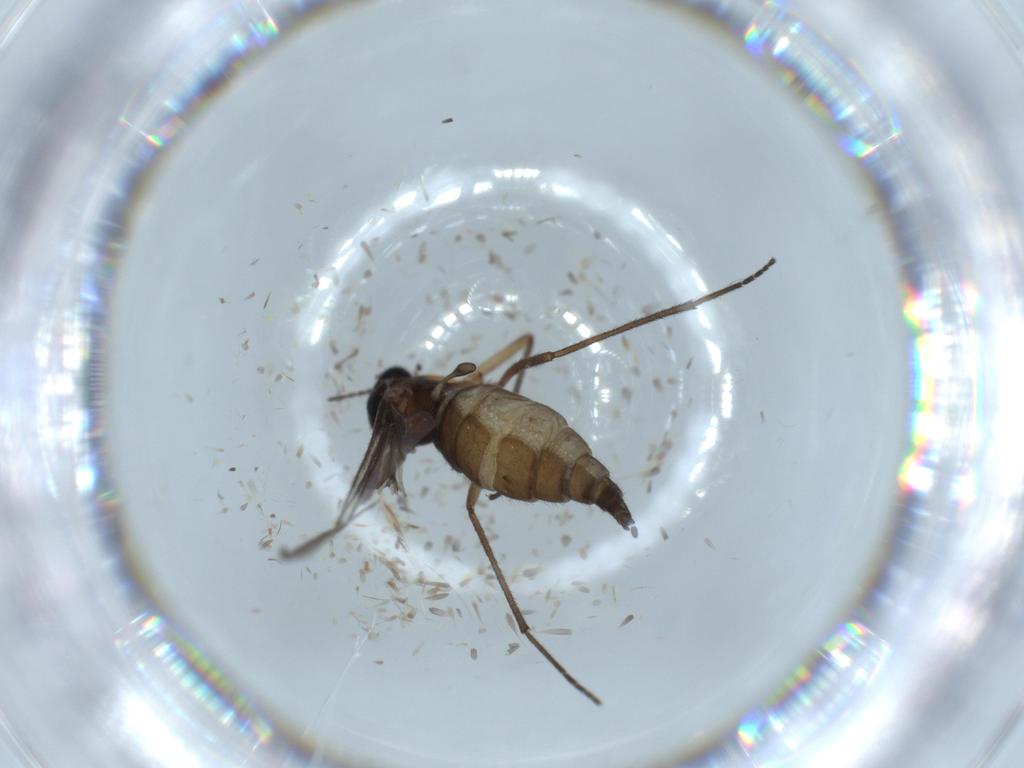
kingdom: Animalia
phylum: Arthropoda
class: Insecta
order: Diptera
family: Sciaridae
